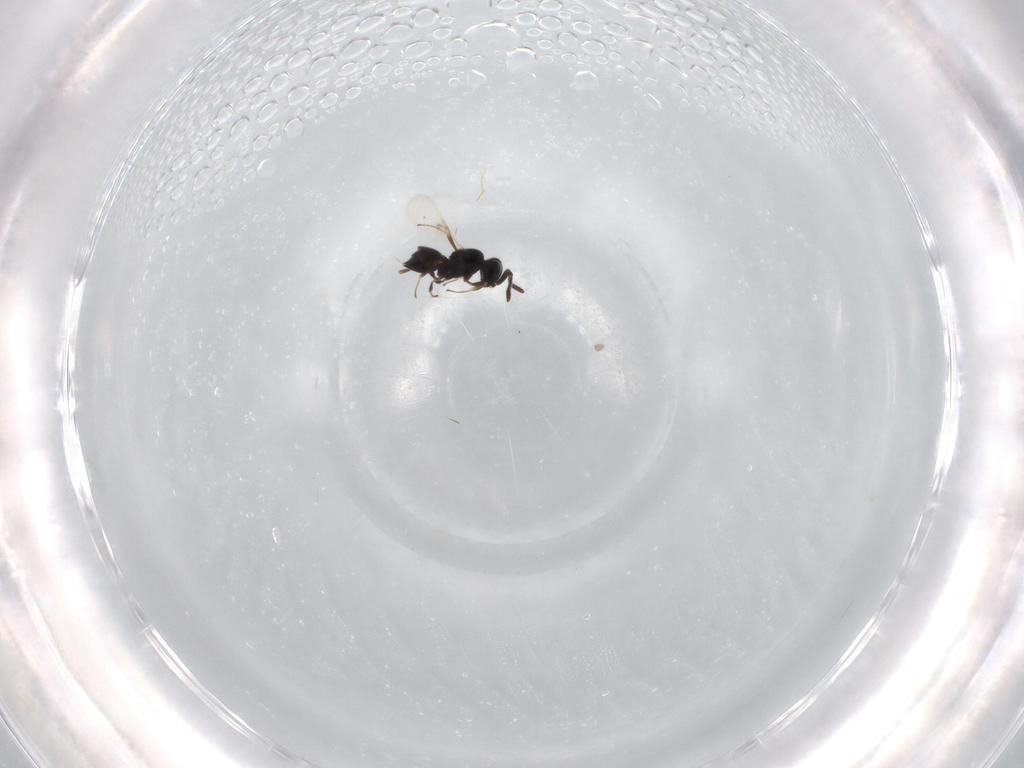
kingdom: Animalia
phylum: Arthropoda
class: Insecta
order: Hymenoptera
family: Scelionidae
